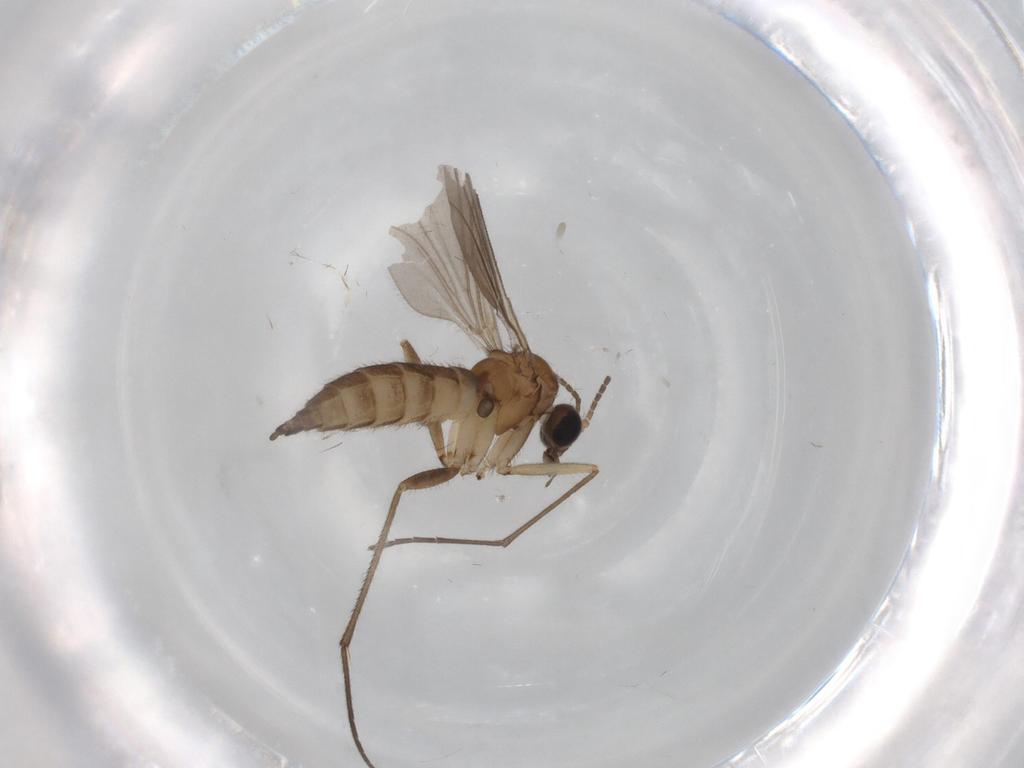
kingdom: Animalia
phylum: Arthropoda
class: Insecta
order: Diptera
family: Sciaridae
